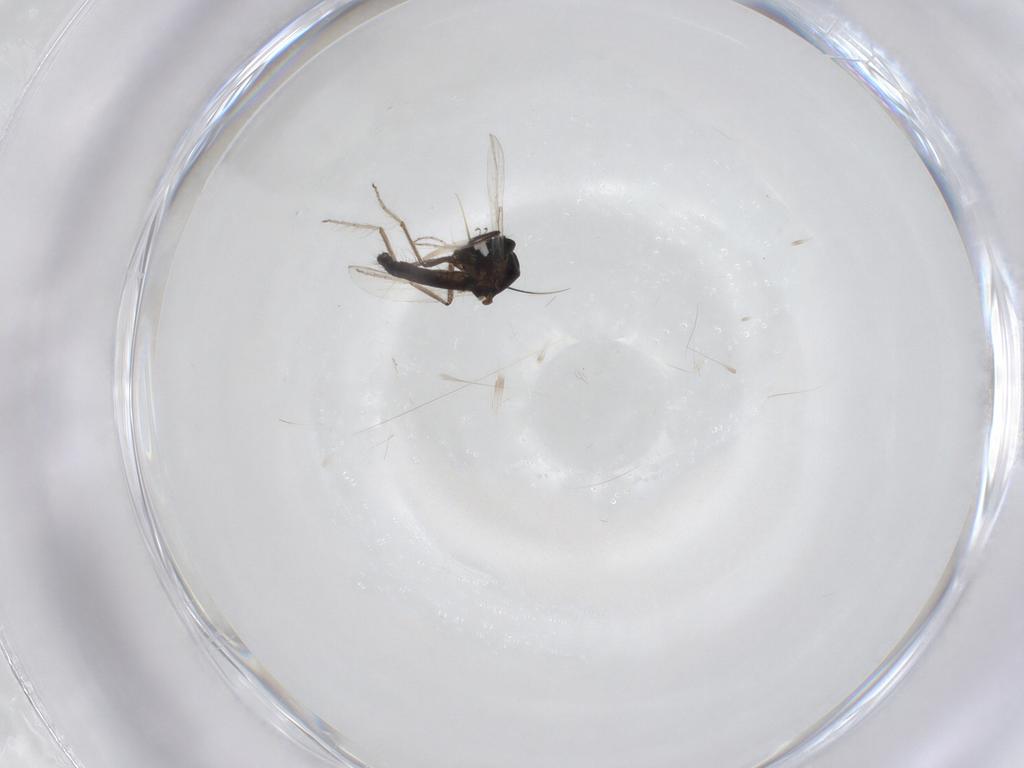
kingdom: Animalia
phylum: Arthropoda
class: Insecta
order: Diptera
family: Ceratopogonidae
